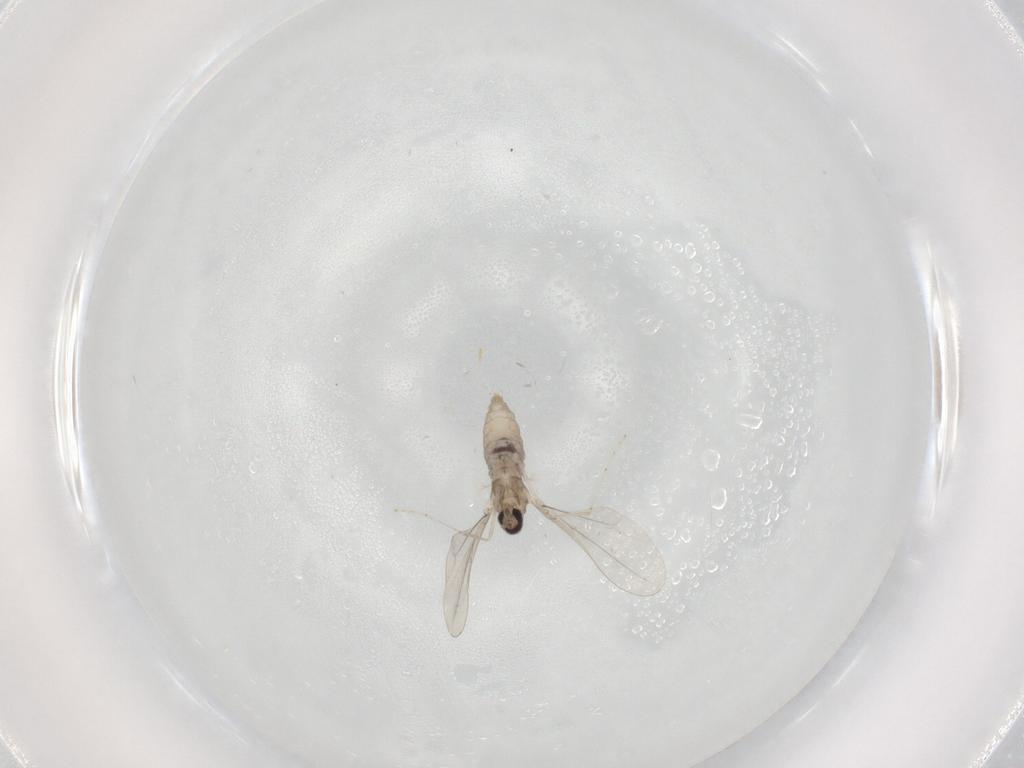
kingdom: Animalia
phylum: Arthropoda
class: Insecta
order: Diptera
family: Cecidomyiidae
